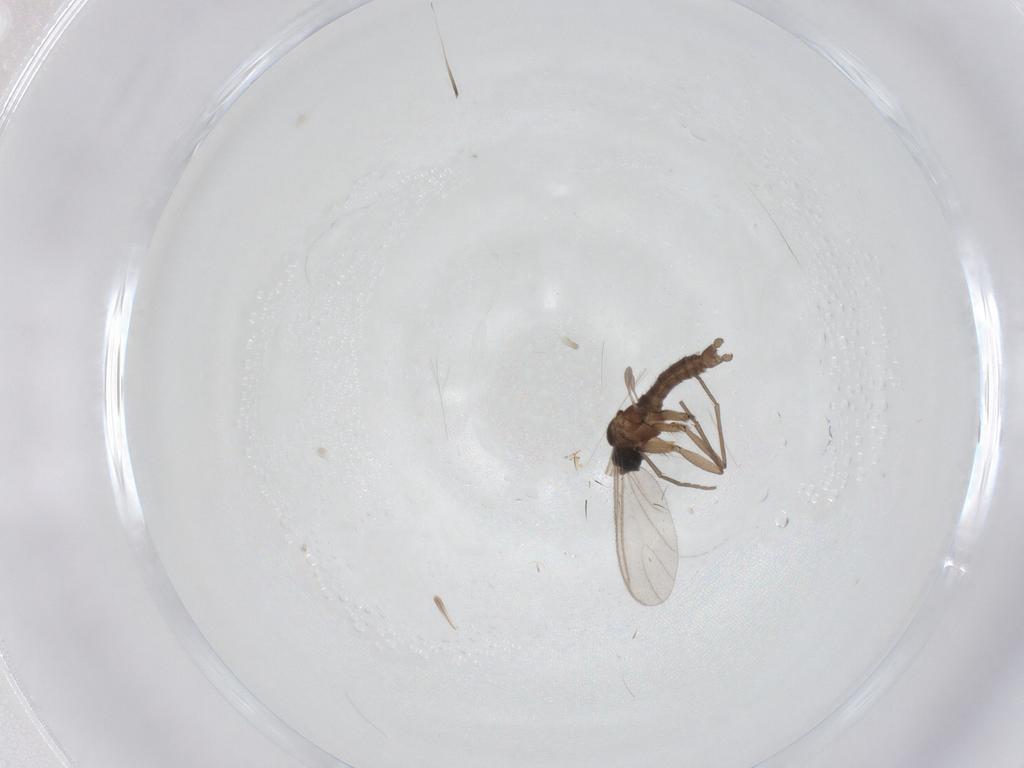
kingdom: Animalia
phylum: Arthropoda
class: Insecta
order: Diptera
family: Sciaridae
